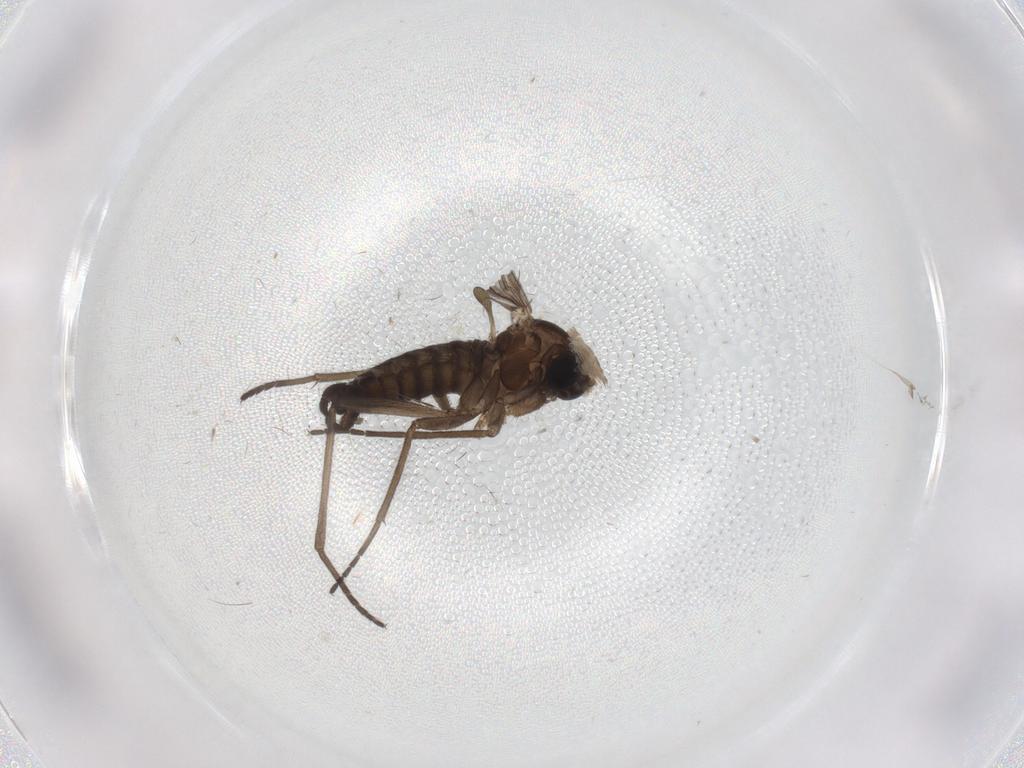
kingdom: Animalia
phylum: Arthropoda
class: Insecta
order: Diptera
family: Sciaridae
